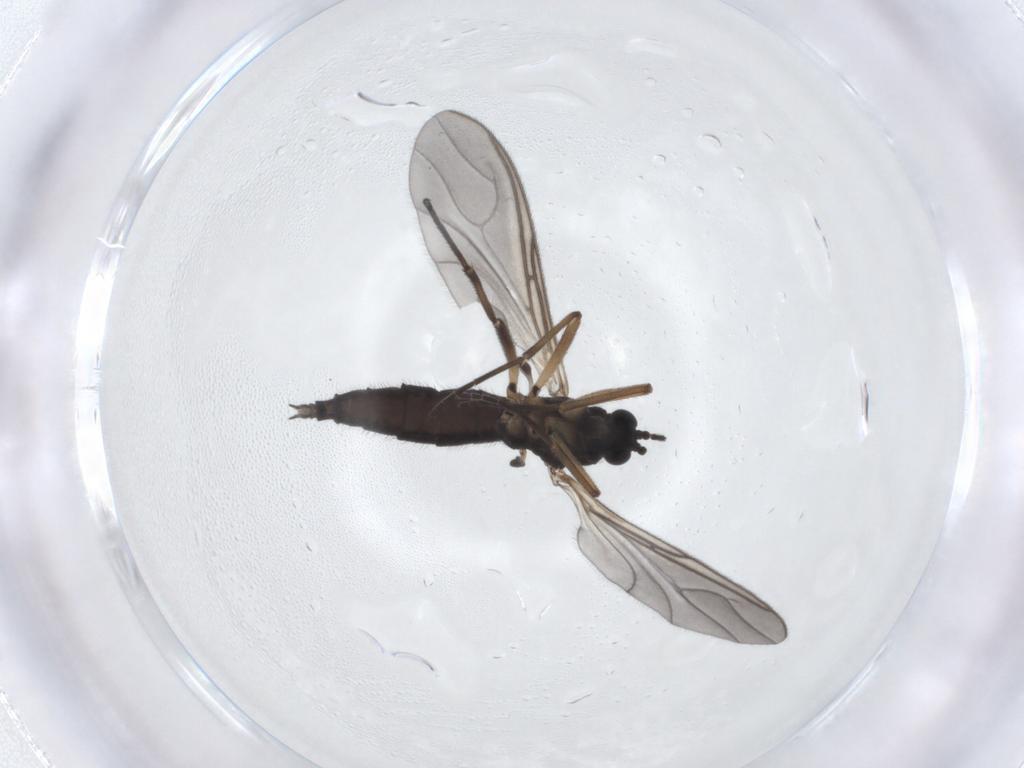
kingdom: Animalia
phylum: Arthropoda
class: Insecta
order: Diptera
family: Sciaridae
